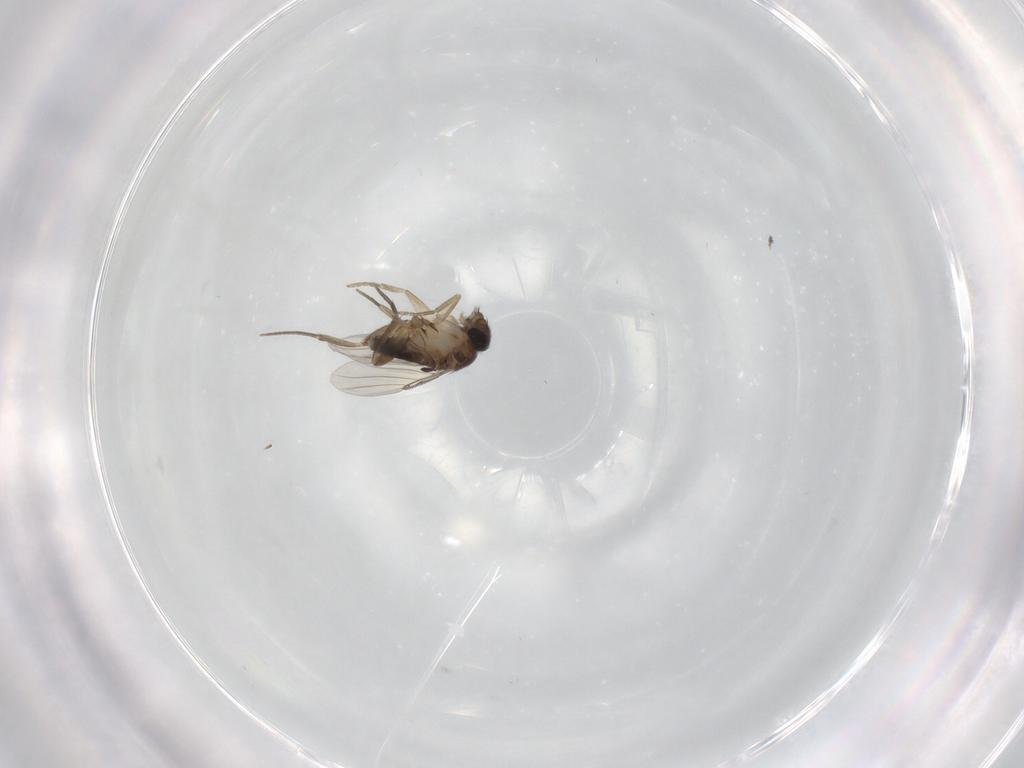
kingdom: Animalia
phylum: Arthropoda
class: Insecta
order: Diptera
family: Phoridae
